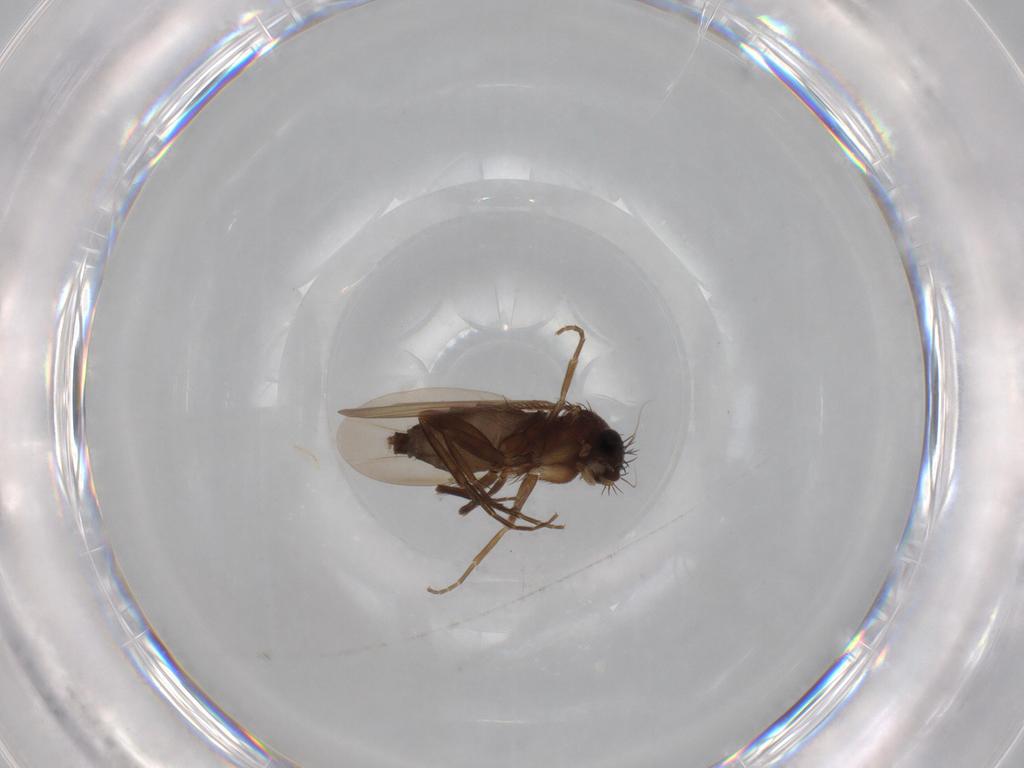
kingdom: Animalia
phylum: Arthropoda
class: Insecta
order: Diptera
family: Phoridae
